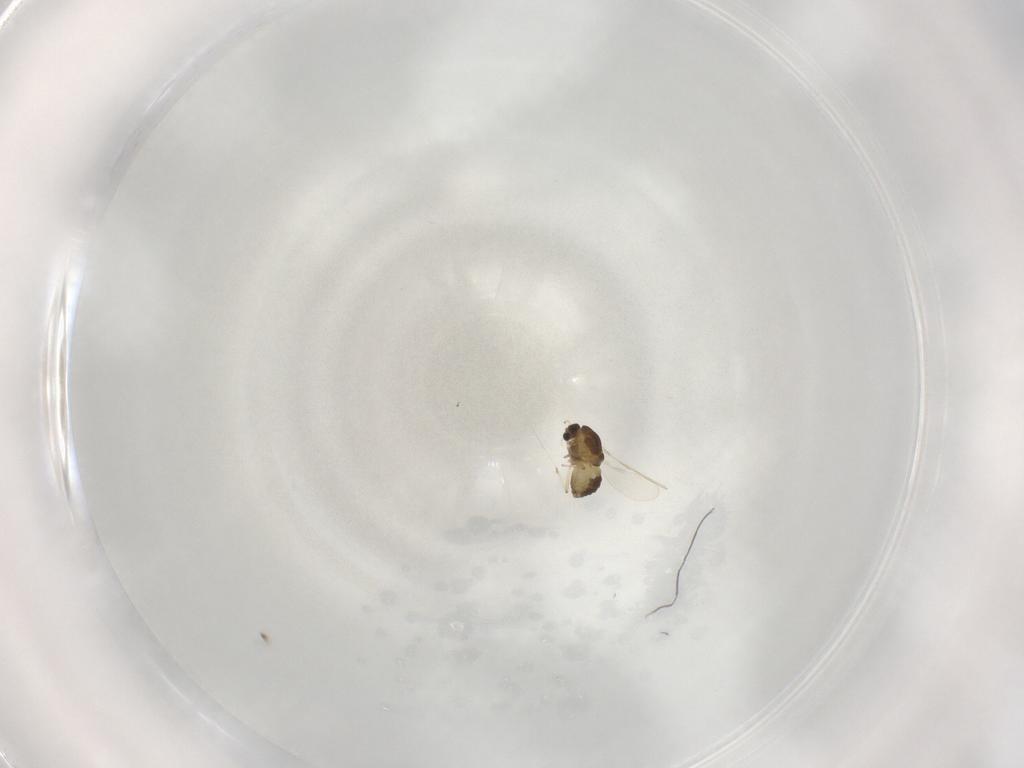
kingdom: Animalia
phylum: Arthropoda
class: Insecta
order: Diptera
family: Chironomidae
